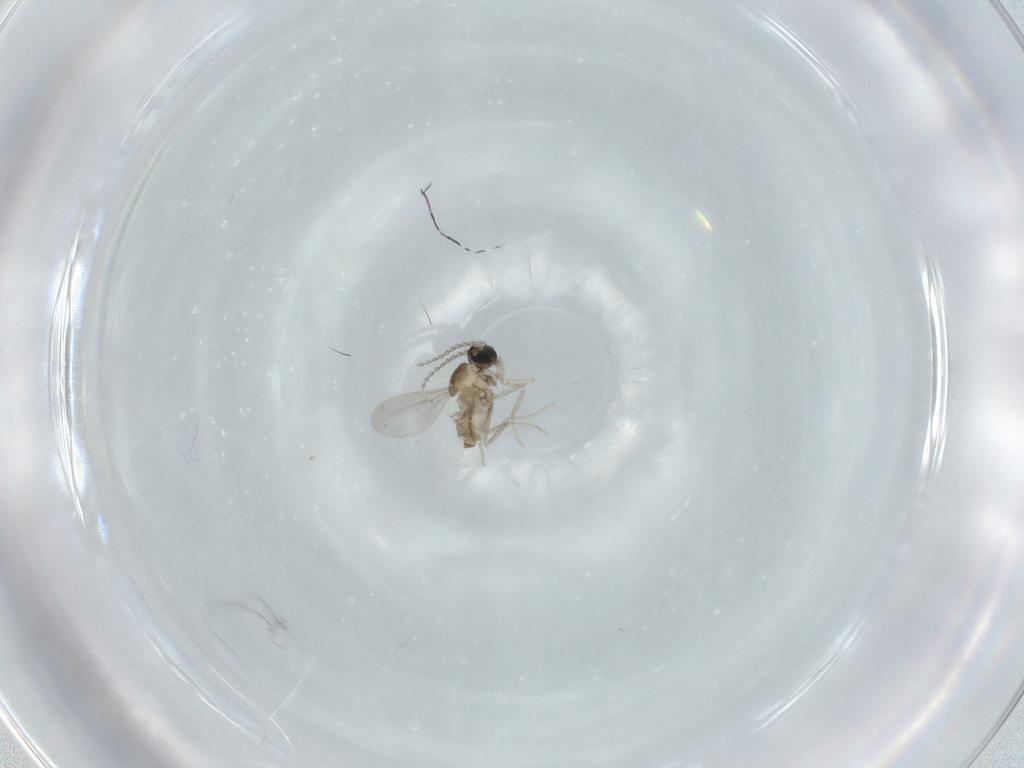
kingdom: Animalia
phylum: Arthropoda
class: Insecta
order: Diptera
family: Cecidomyiidae
